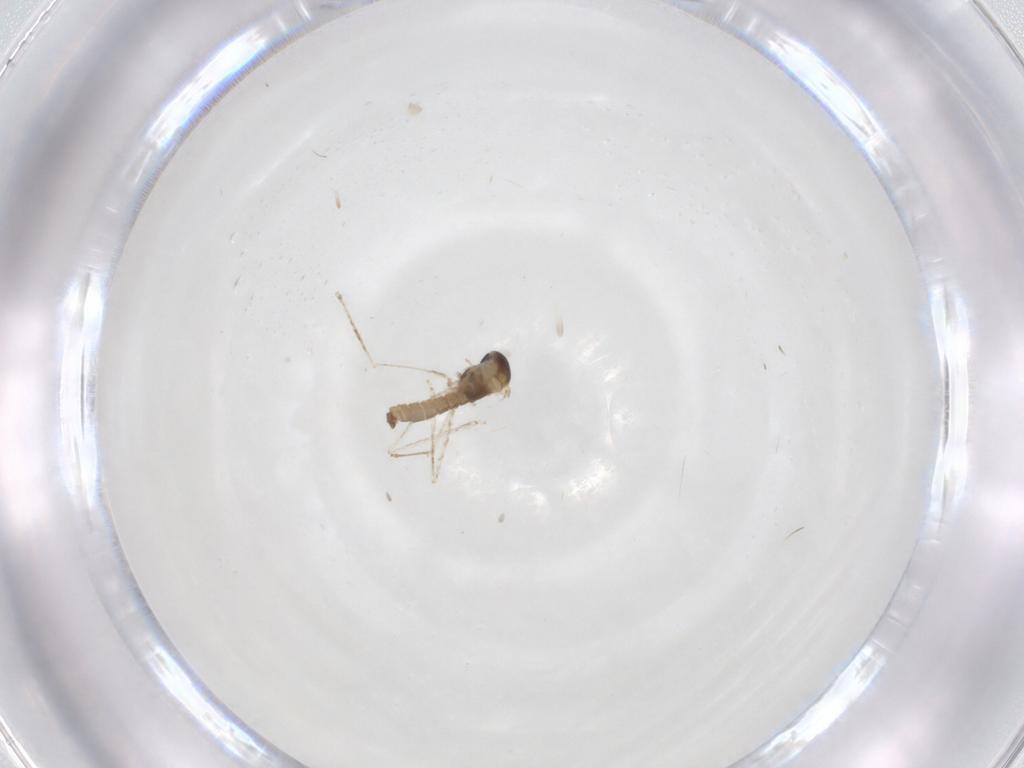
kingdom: Animalia
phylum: Arthropoda
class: Insecta
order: Diptera
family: Cecidomyiidae
